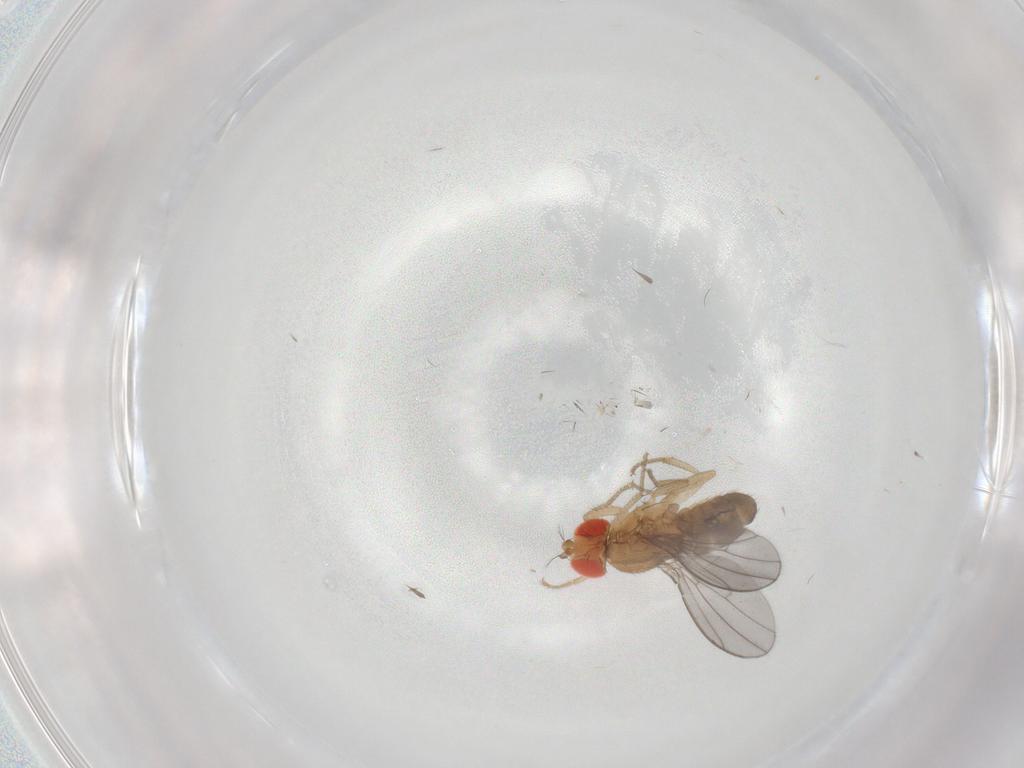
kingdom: Animalia
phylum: Arthropoda
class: Insecta
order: Diptera
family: Drosophilidae
